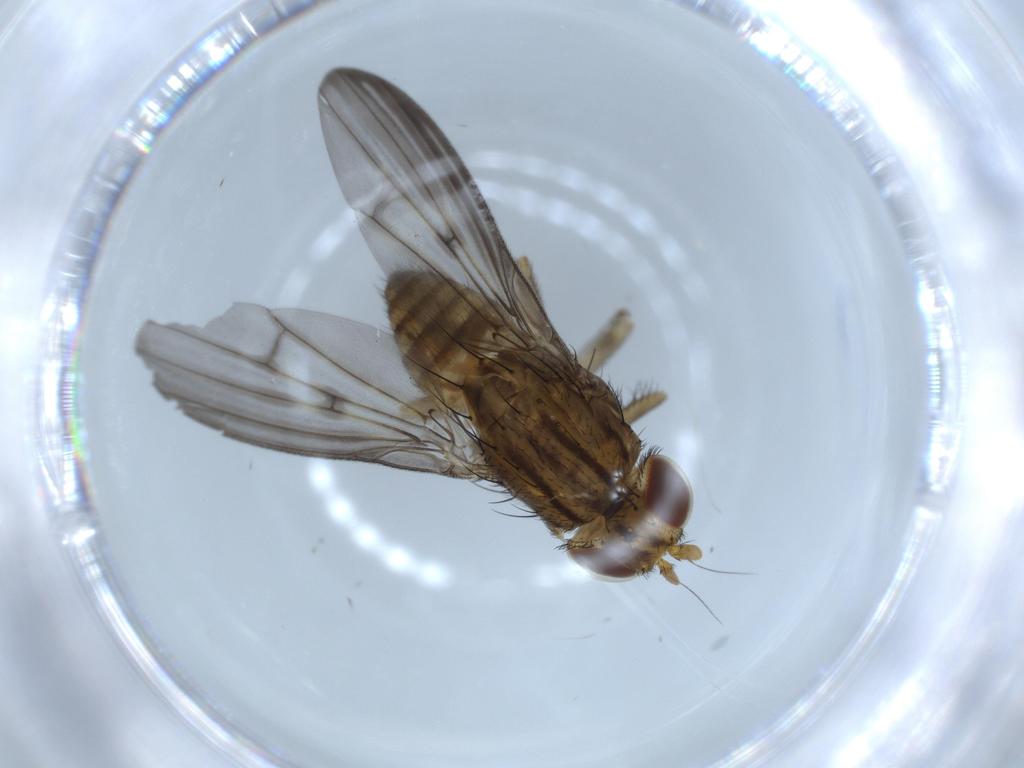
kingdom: Animalia
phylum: Arthropoda
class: Insecta
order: Diptera
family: Lauxaniidae
